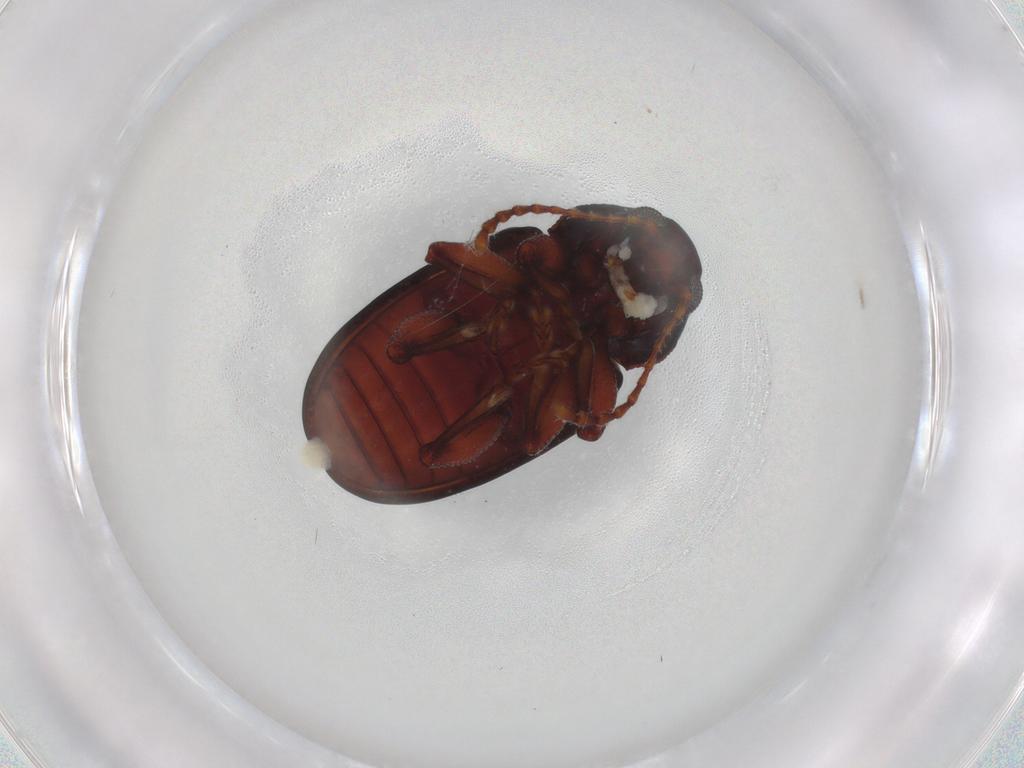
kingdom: Animalia
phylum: Arthropoda
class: Insecta
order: Coleoptera
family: Chrysomelidae
